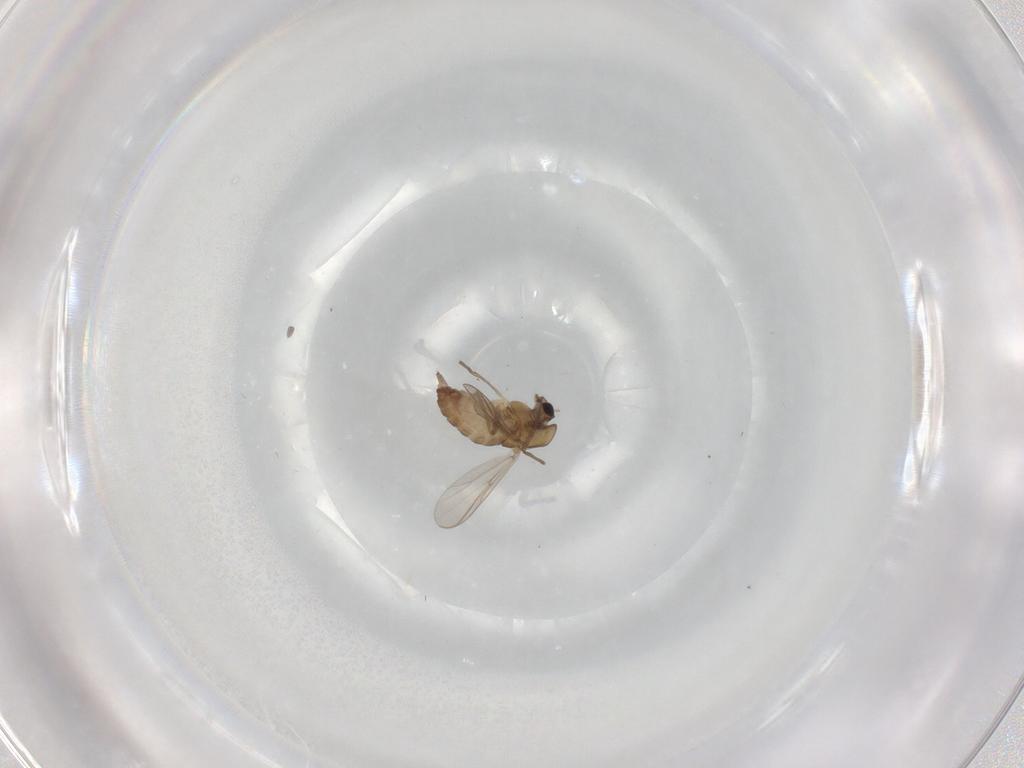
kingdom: Animalia
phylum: Arthropoda
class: Insecta
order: Diptera
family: Chironomidae
